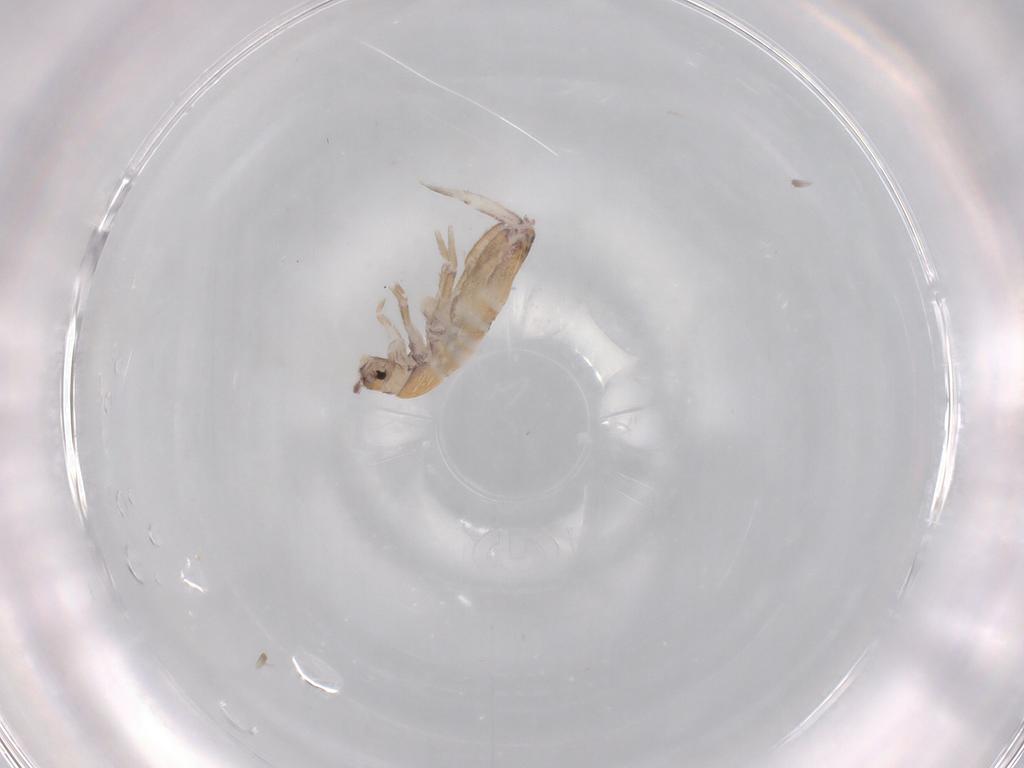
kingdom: Animalia
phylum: Arthropoda
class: Collembola
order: Entomobryomorpha
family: Entomobryidae
